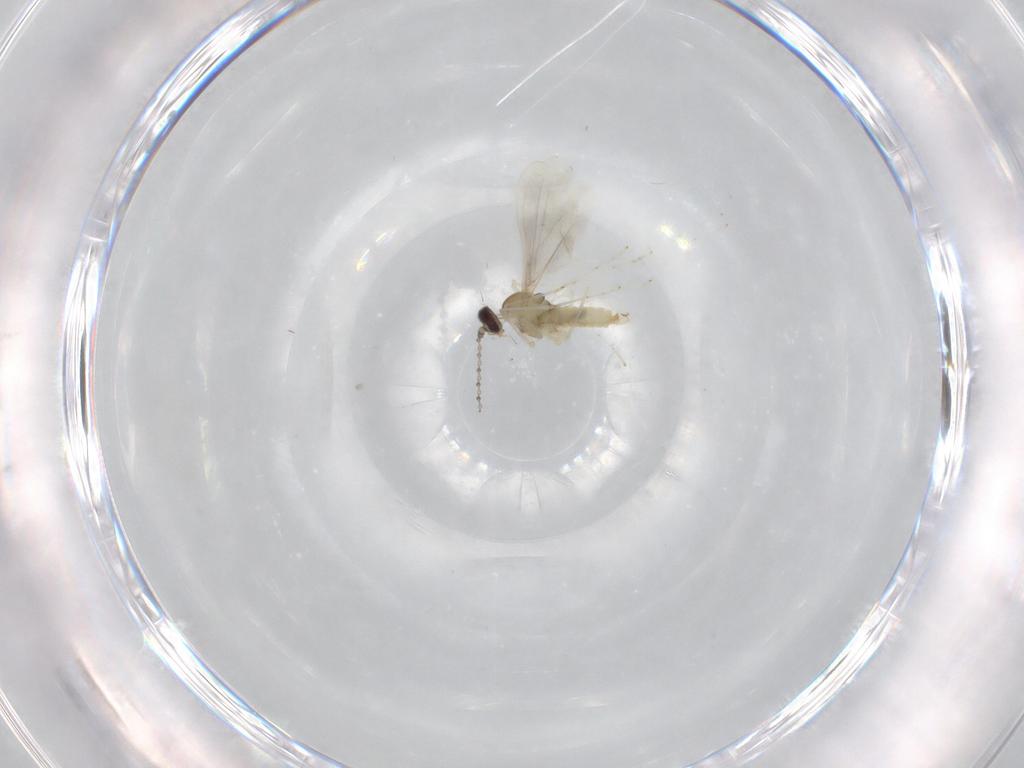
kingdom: Animalia
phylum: Arthropoda
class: Insecta
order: Diptera
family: Cecidomyiidae
